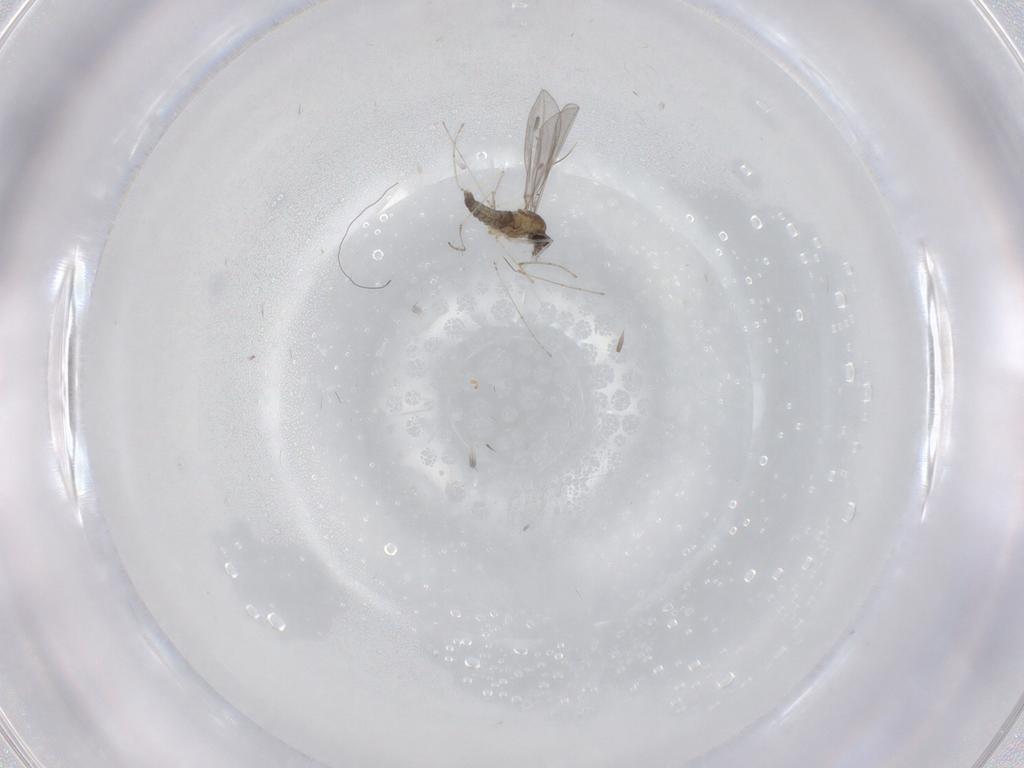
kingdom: Animalia
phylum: Arthropoda
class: Insecta
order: Diptera
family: Cecidomyiidae
